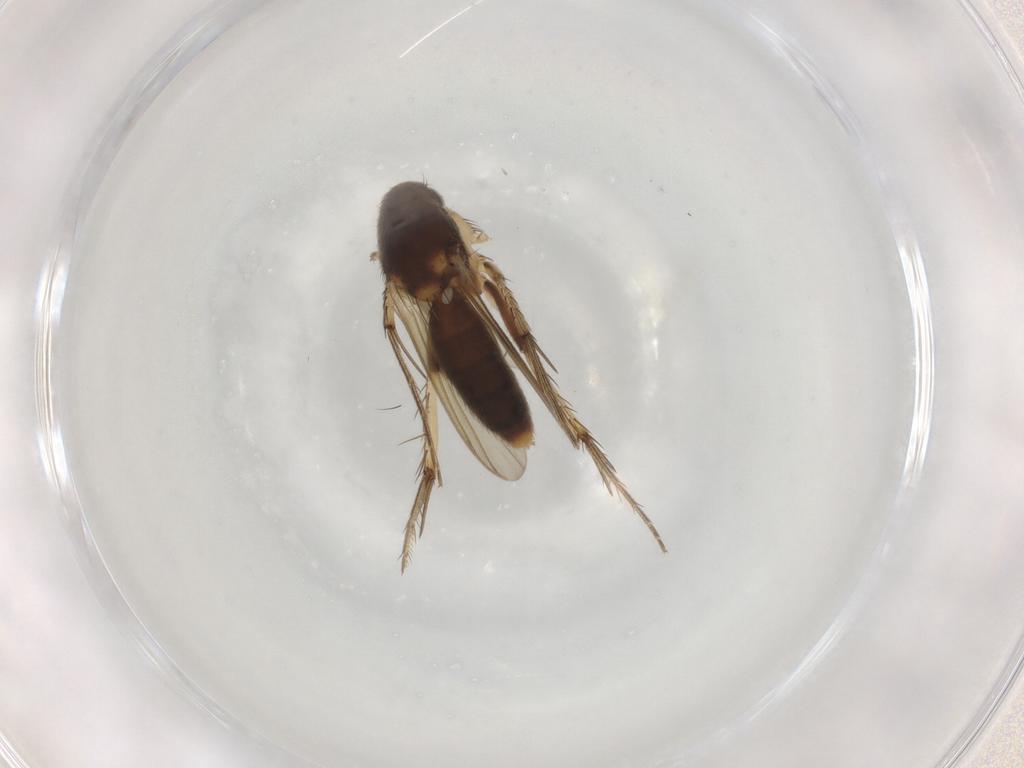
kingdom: Animalia
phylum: Arthropoda
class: Insecta
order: Diptera
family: Mycetophilidae
